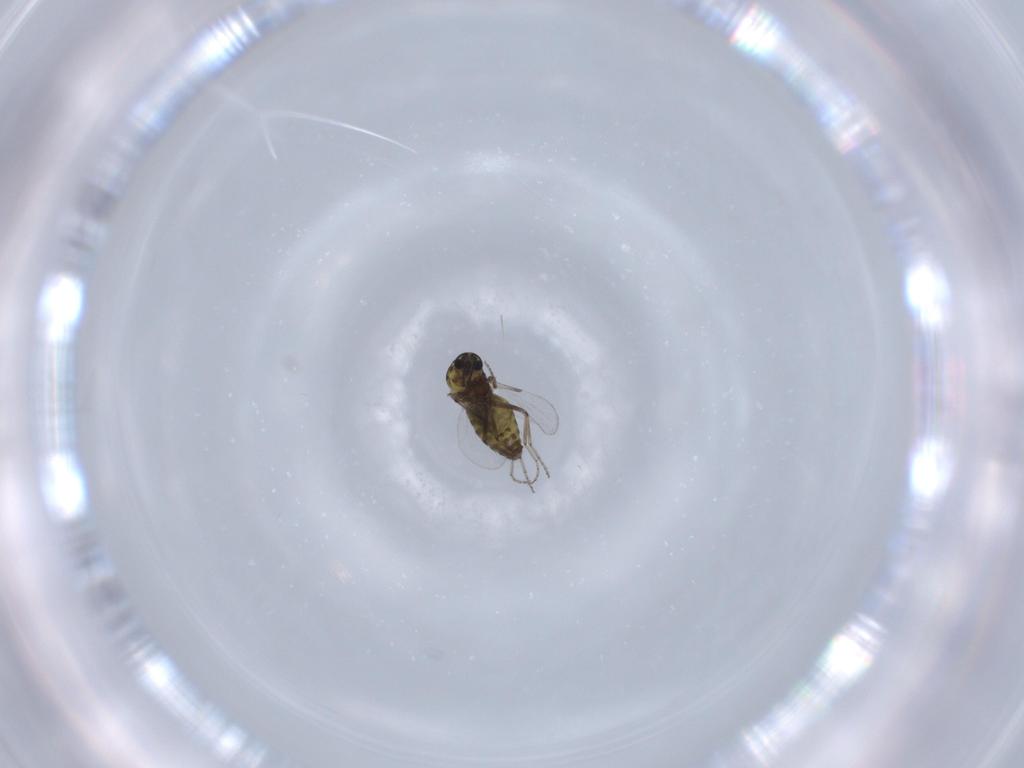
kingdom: Animalia
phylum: Arthropoda
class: Insecta
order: Diptera
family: Ceratopogonidae
